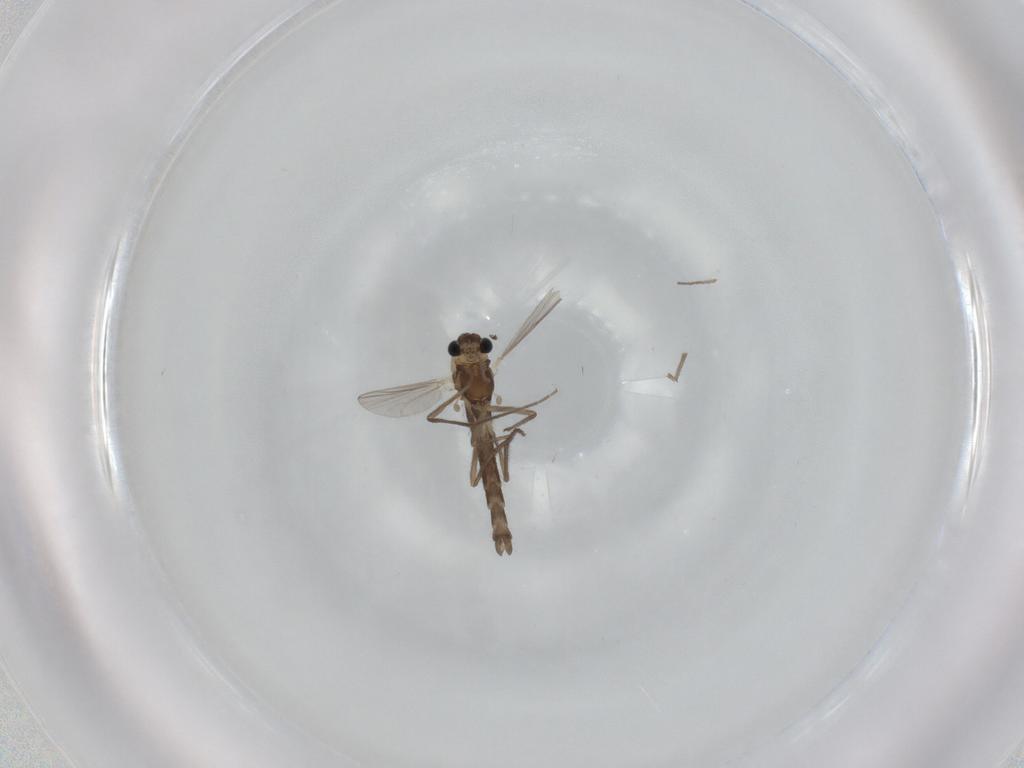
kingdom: Animalia
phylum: Arthropoda
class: Insecta
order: Diptera
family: Chironomidae
